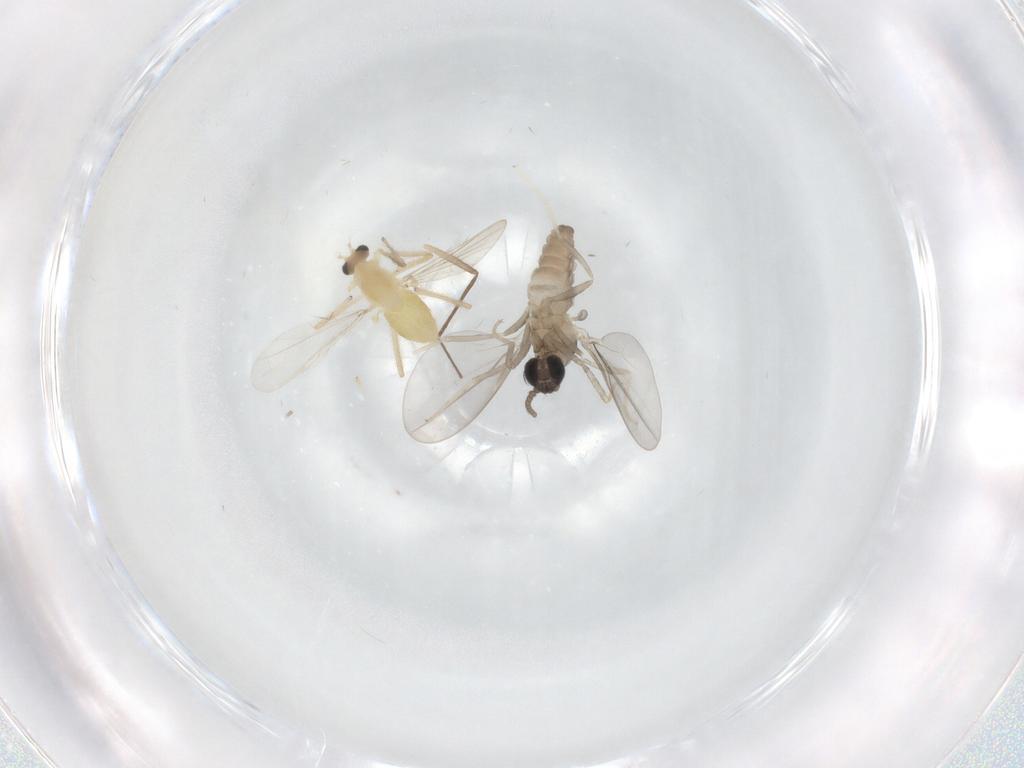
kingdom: Animalia
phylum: Arthropoda
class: Insecta
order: Diptera
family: Chironomidae
